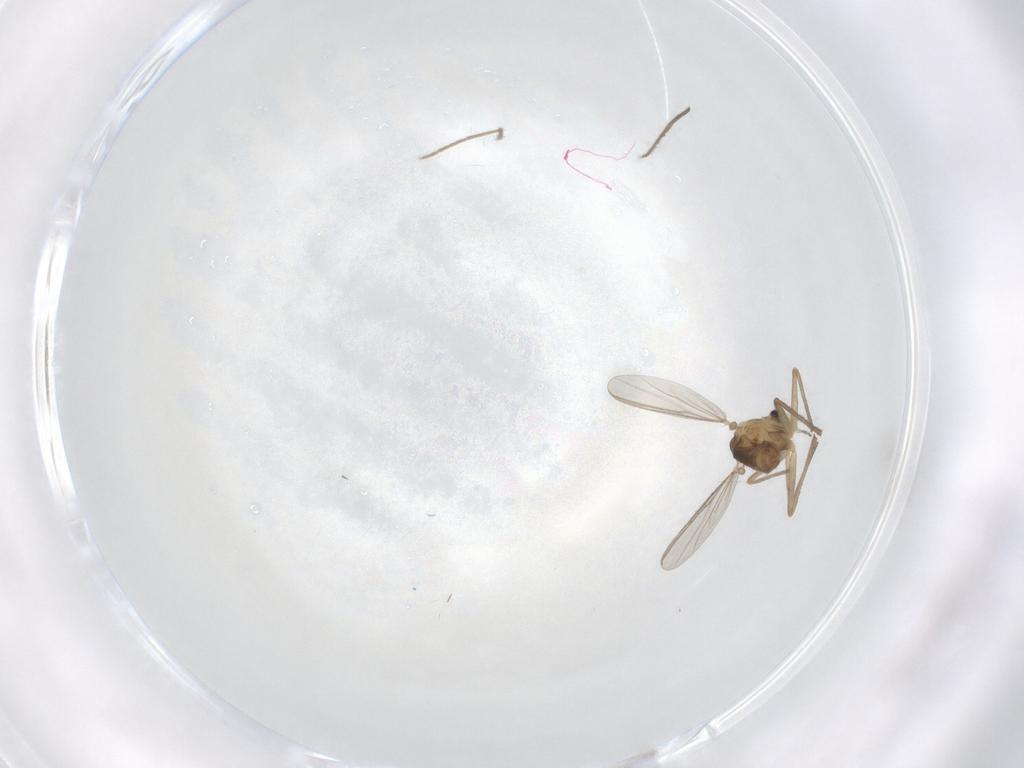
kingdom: Animalia
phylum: Arthropoda
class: Insecta
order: Diptera
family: Chironomidae
